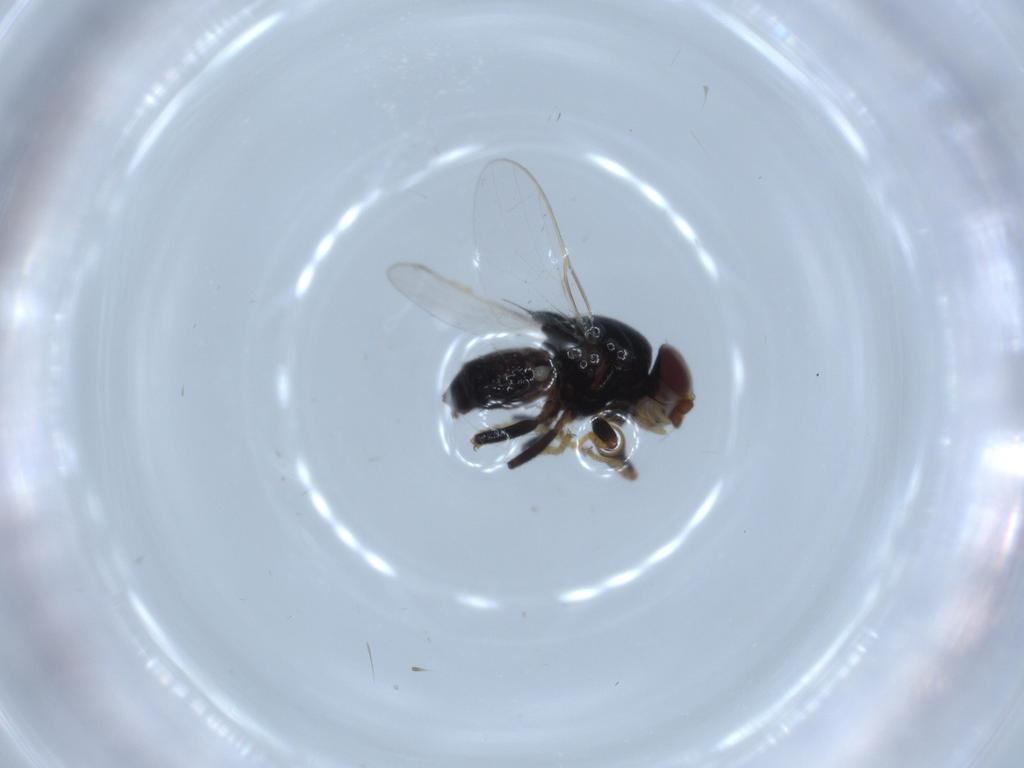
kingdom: Animalia
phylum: Arthropoda
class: Insecta
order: Diptera
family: Chloropidae
